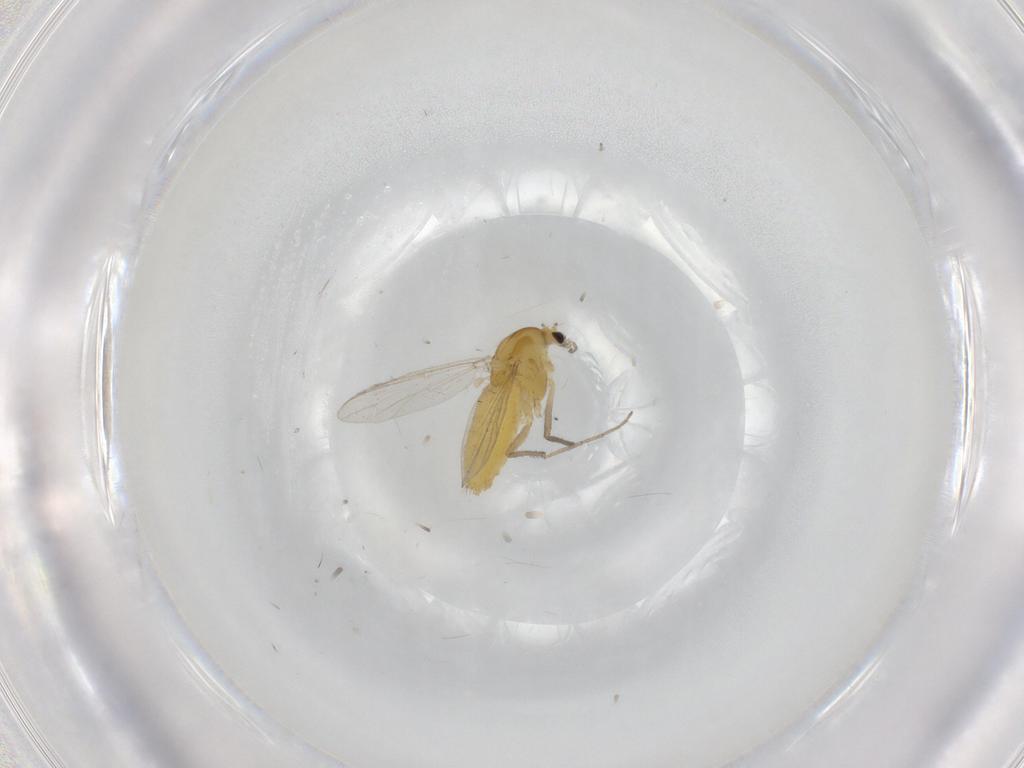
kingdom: Animalia
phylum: Arthropoda
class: Insecta
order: Diptera
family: Chironomidae
